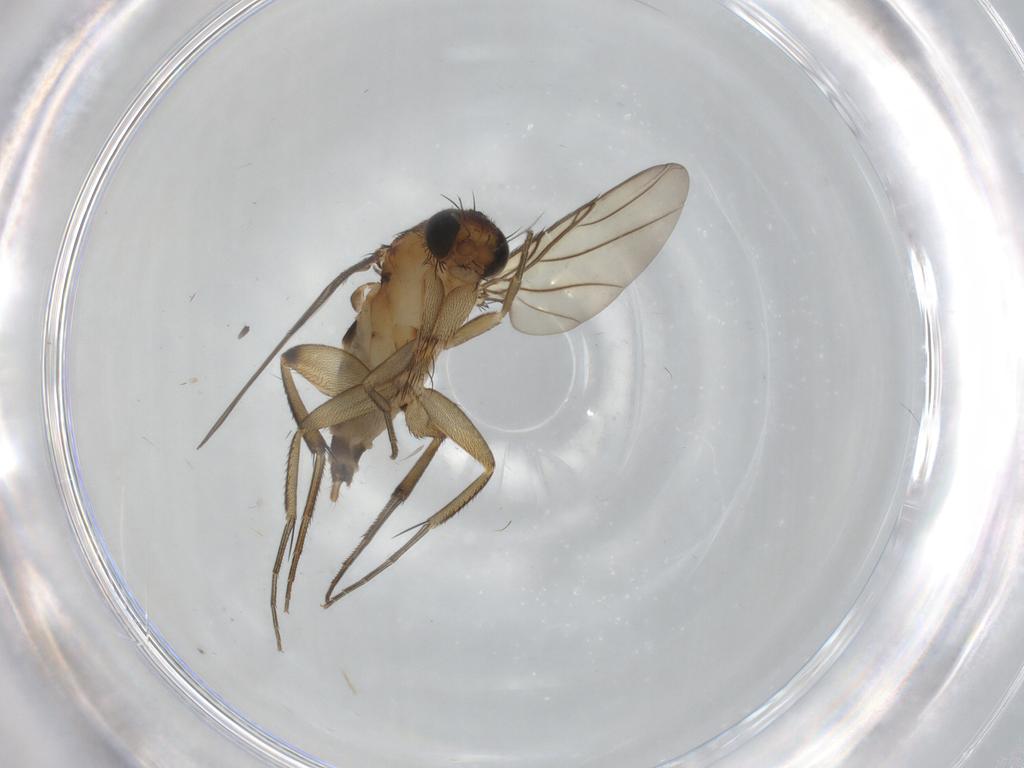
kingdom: Animalia
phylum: Arthropoda
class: Insecta
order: Diptera
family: Phoridae
